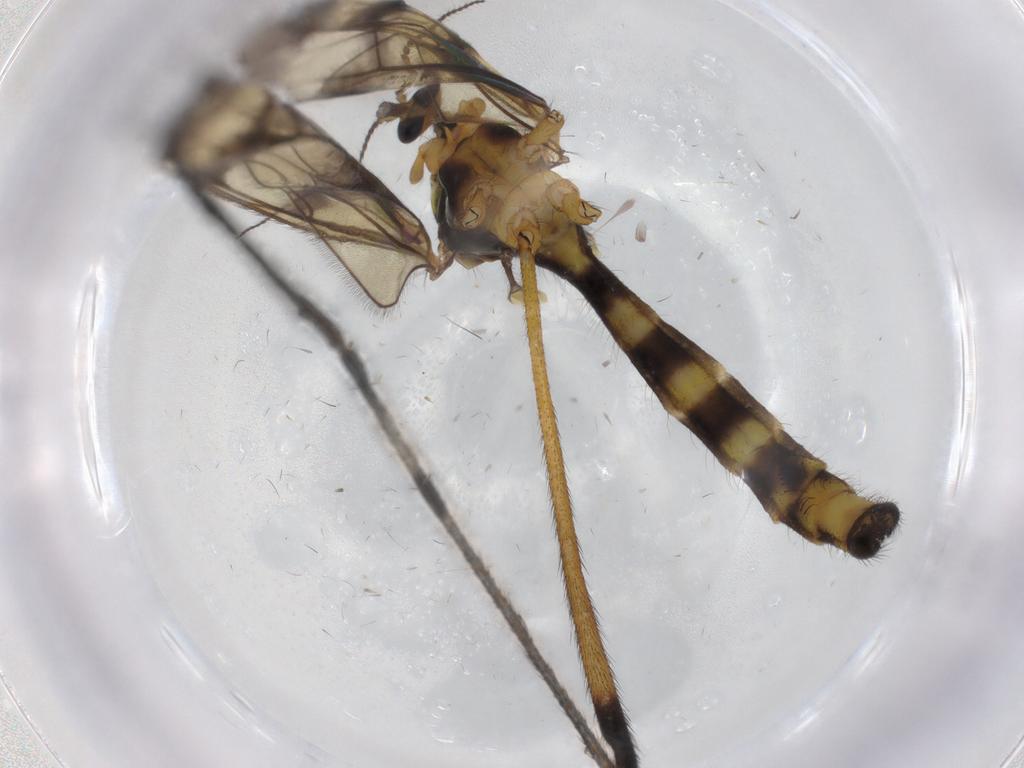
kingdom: Animalia
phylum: Arthropoda
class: Insecta
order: Diptera
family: Limoniidae
